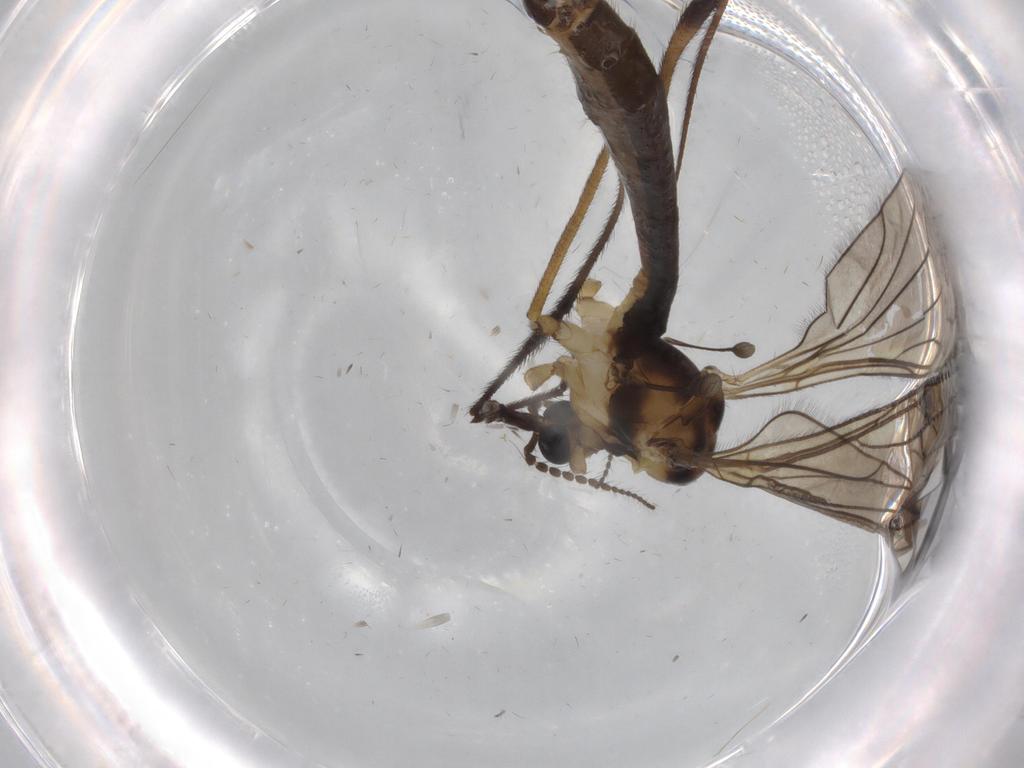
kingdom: Animalia
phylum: Arthropoda
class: Insecta
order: Diptera
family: Limoniidae
